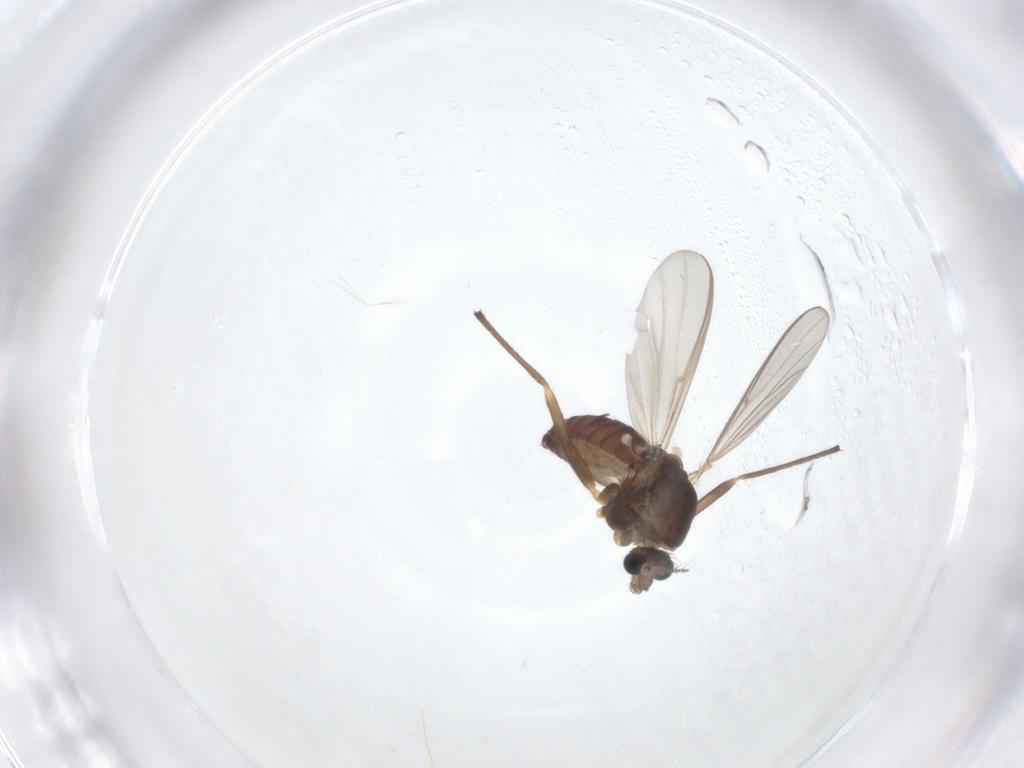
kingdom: Animalia
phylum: Arthropoda
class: Insecta
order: Diptera
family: Chironomidae
